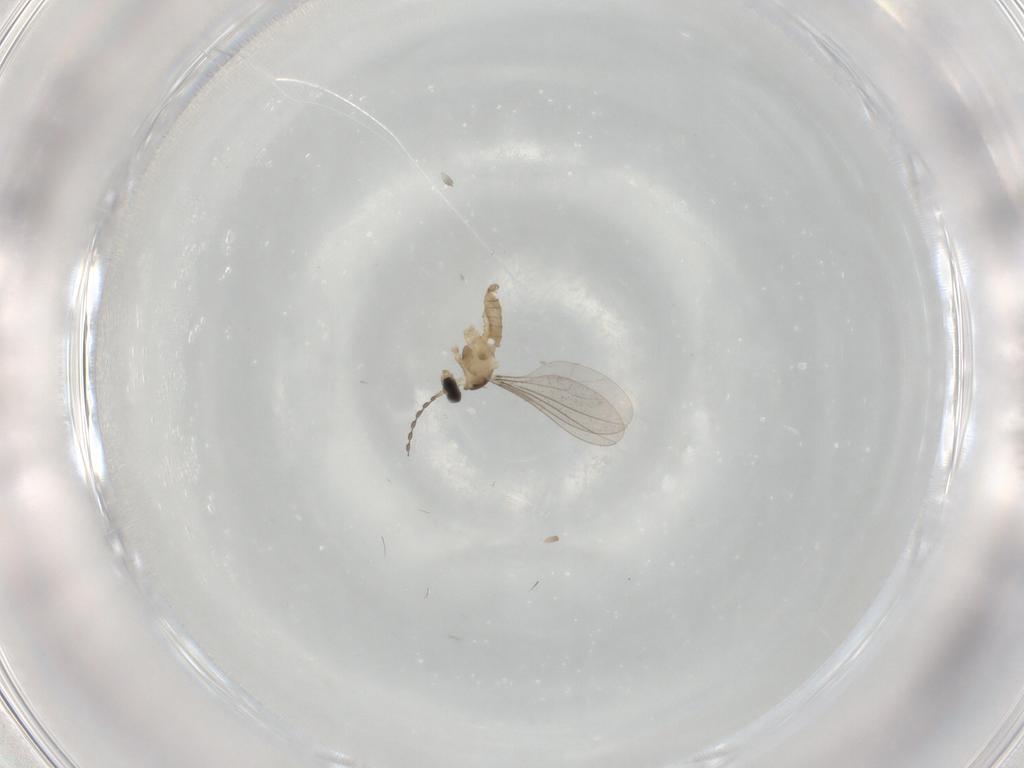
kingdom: Animalia
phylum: Arthropoda
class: Insecta
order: Diptera
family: Cecidomyiidae
